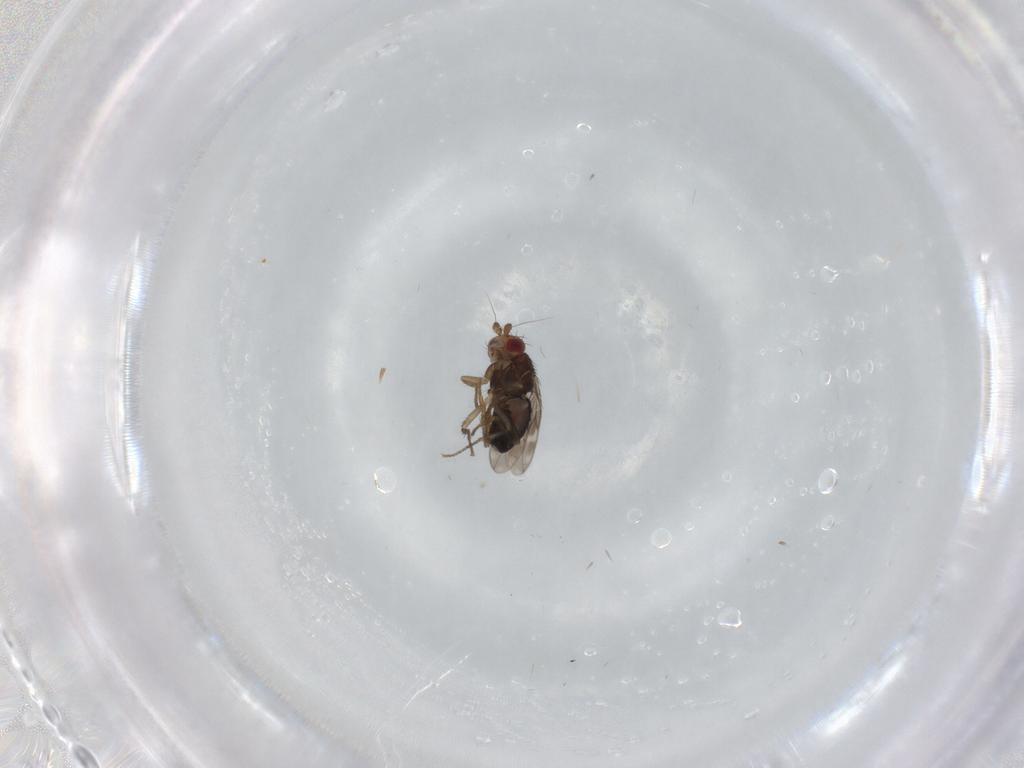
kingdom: Animalia
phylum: Arthropoda
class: Insecta
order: Diptera
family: Sphaeroceridae
